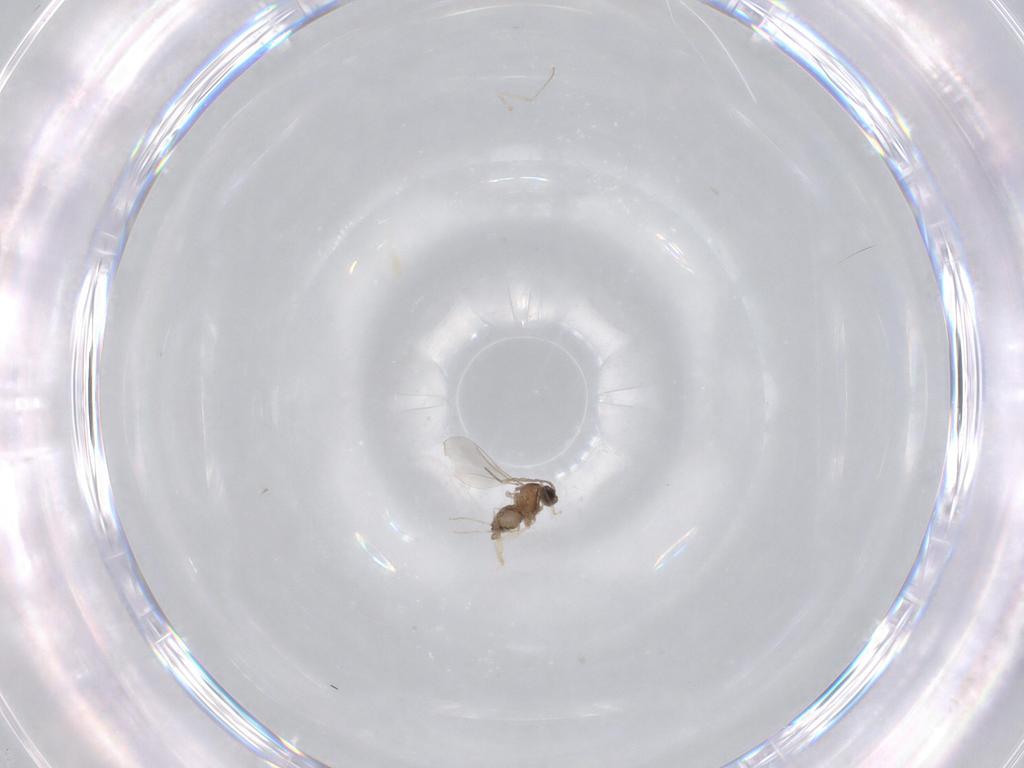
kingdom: Animalia
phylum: Arthropoda
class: Insecta
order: Diptera
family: Cecidomyiidae
